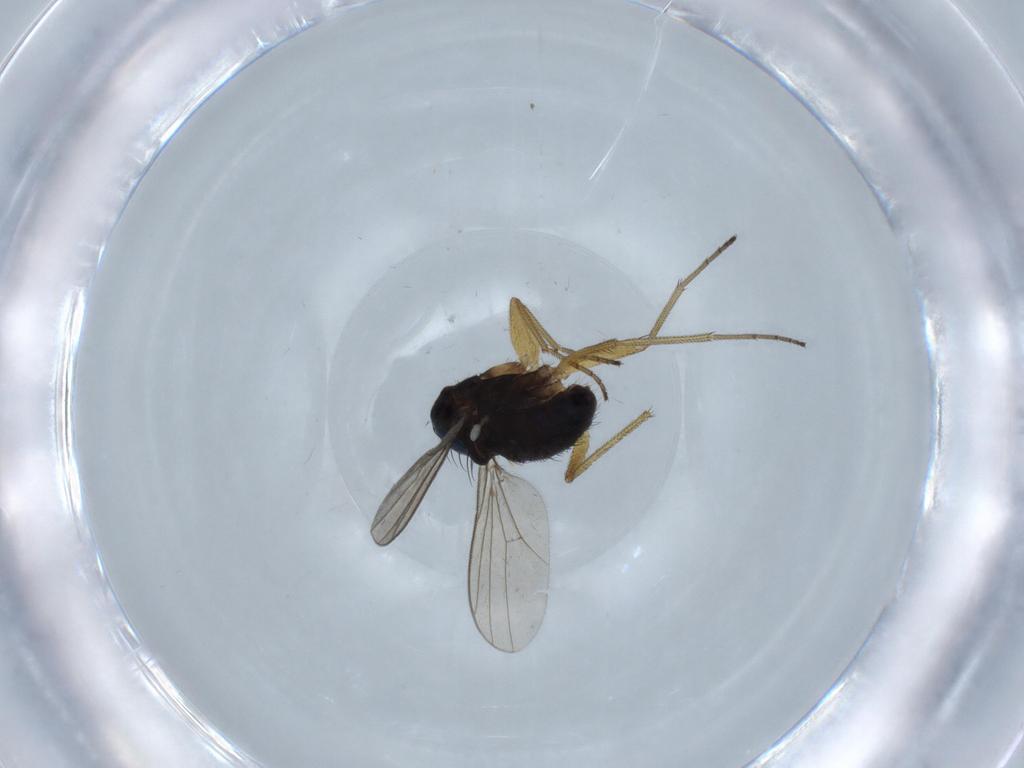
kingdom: Animalia
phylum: Arthropoda
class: Insecta
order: Diptera
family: Dolichopodidae
